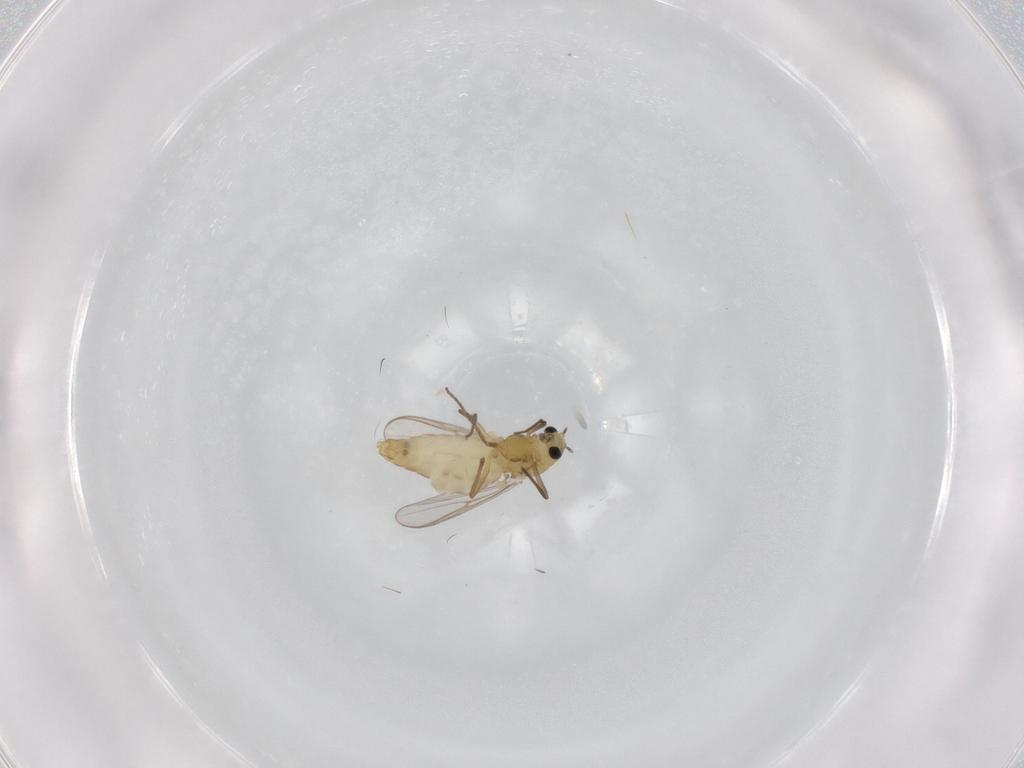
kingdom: Animalia
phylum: Arthropoda
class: Insecta
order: Diptera
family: Chironomidae
